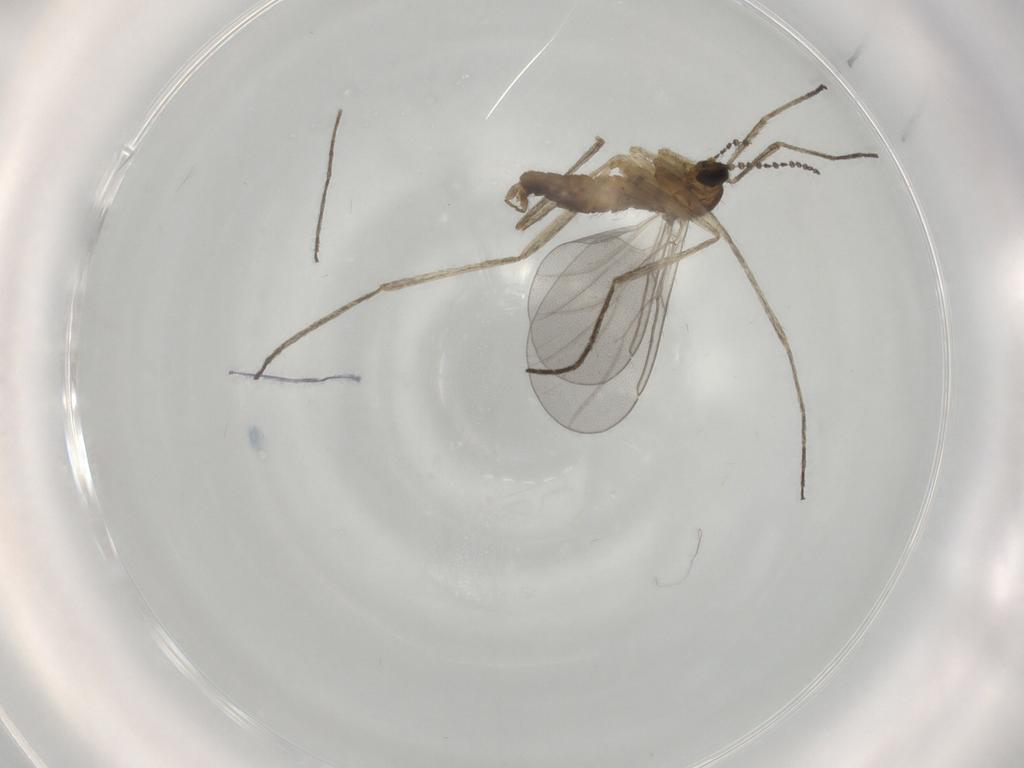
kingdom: Animalia
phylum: Arthropoda
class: Insecta
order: Diptera
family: Cecidomyiidae
